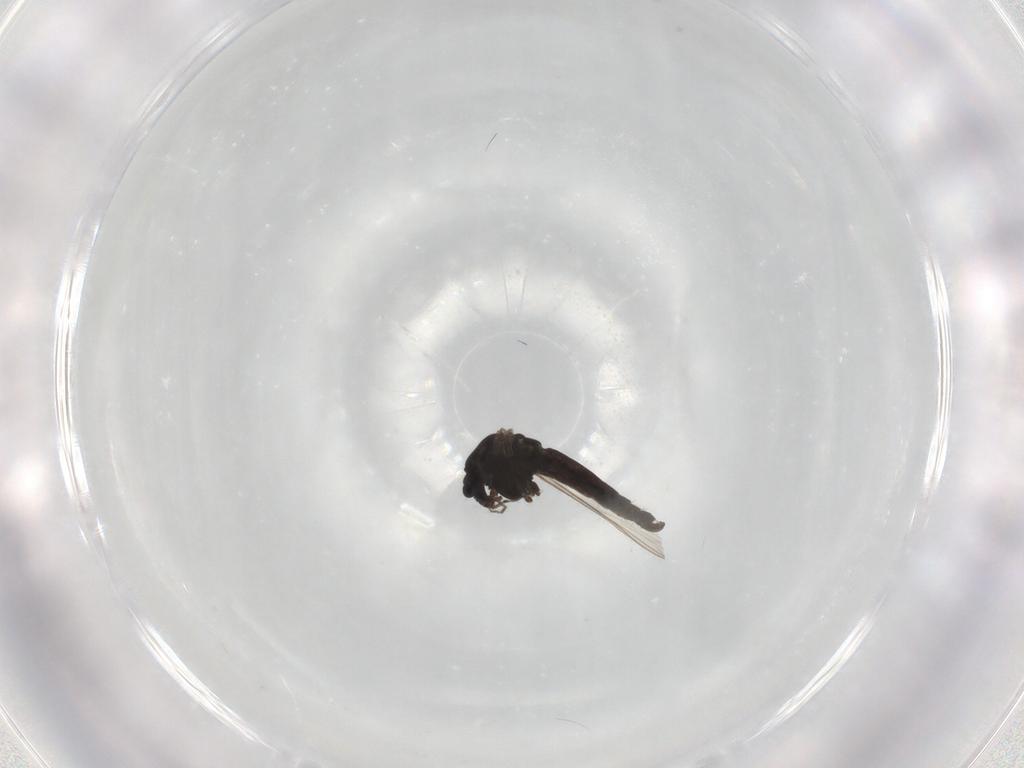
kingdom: Animalia
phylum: Arthropoda
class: Insecta
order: Diptera
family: Chironomidae
